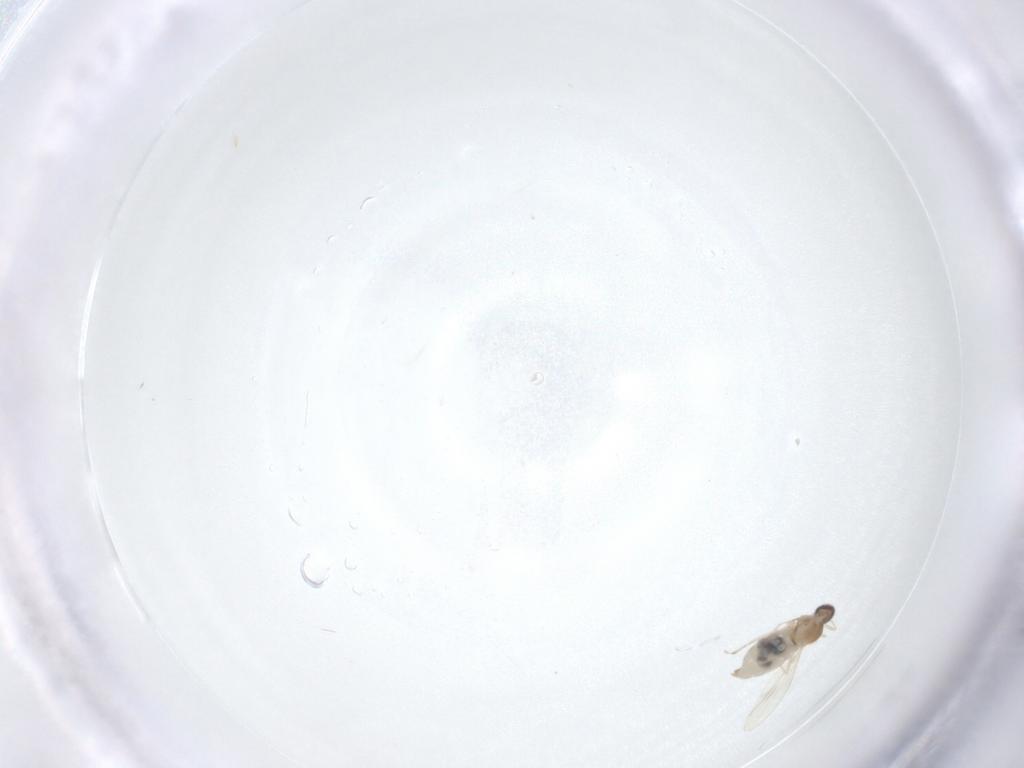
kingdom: Animalia
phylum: Arthropoda
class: Insecta
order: Diptera
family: Cecidomyiidae
